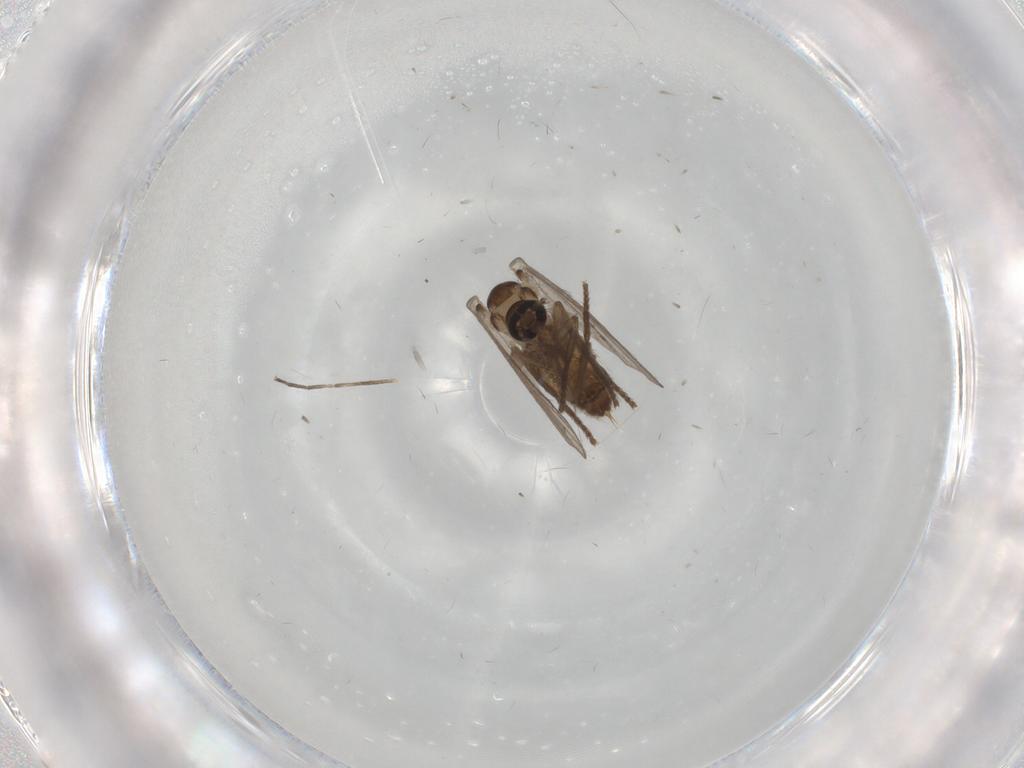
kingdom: Animalia
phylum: Arthropoda
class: Insecta
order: Diptera
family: Psychodidae
